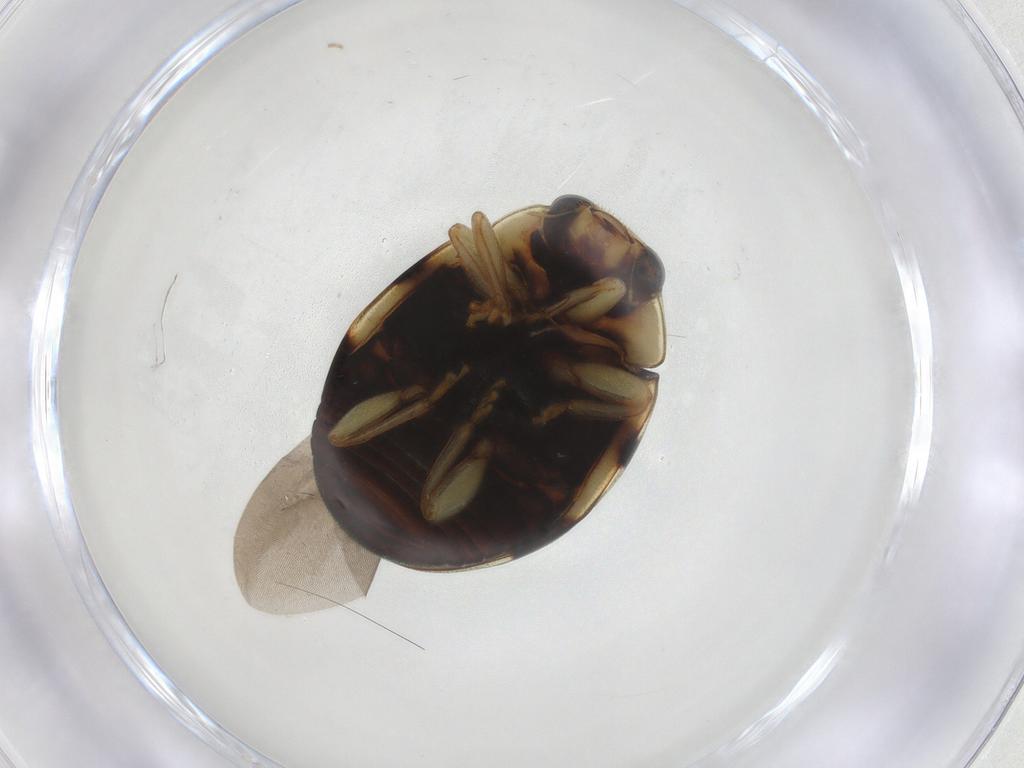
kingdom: Animalia
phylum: Arthropoda
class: Insecta
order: Coleoptera
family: Coccinellidae
